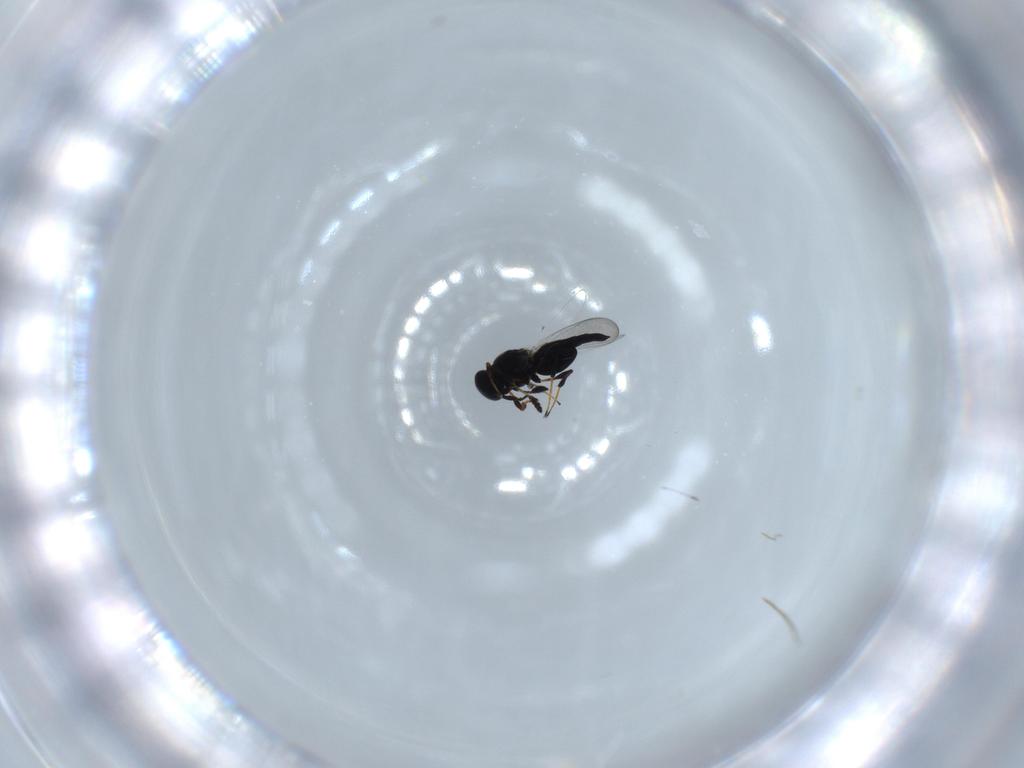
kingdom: Animalia
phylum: Arthropoda
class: Insecta
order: Hymenoptera
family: Platygastridae
